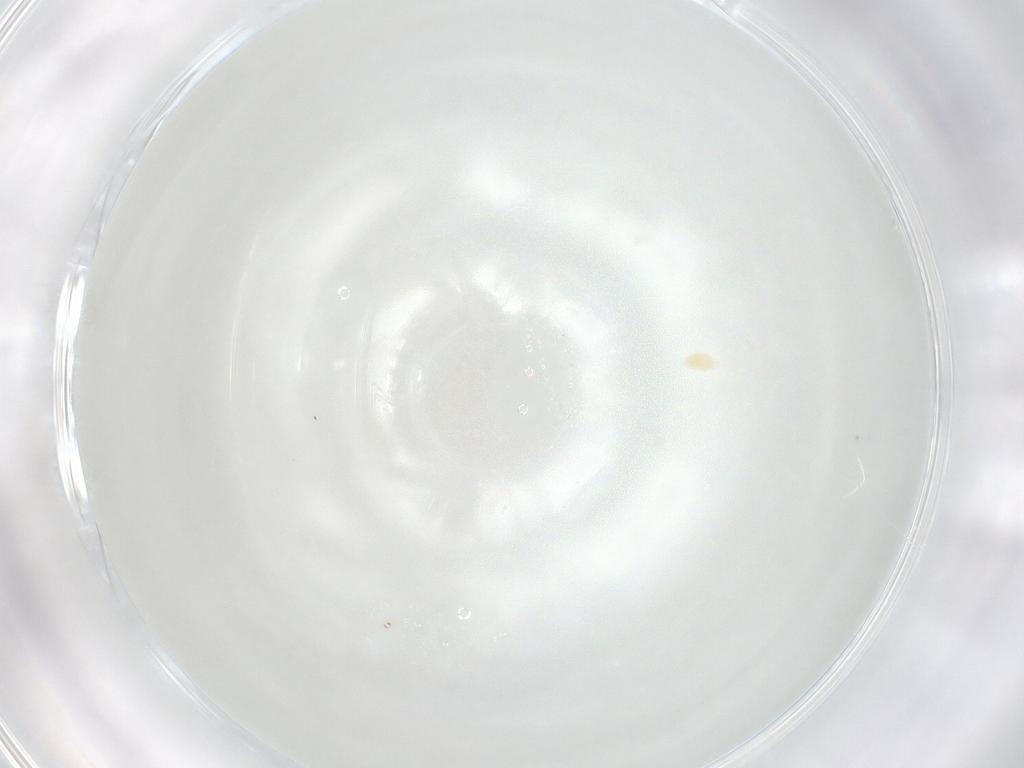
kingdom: Animalia
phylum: Arthropoda
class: Arachnida
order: Trombidiformes
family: Eupodidae
